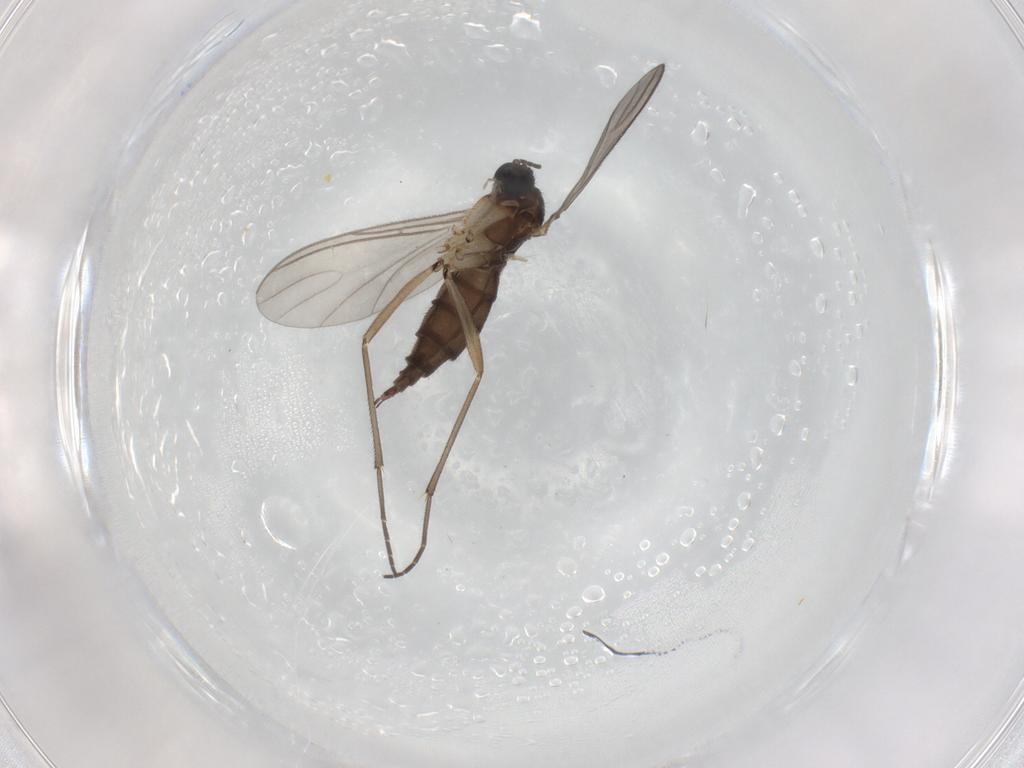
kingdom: Animalia
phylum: Arthropoda
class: Insecta
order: Diptera
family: Sciaridae
